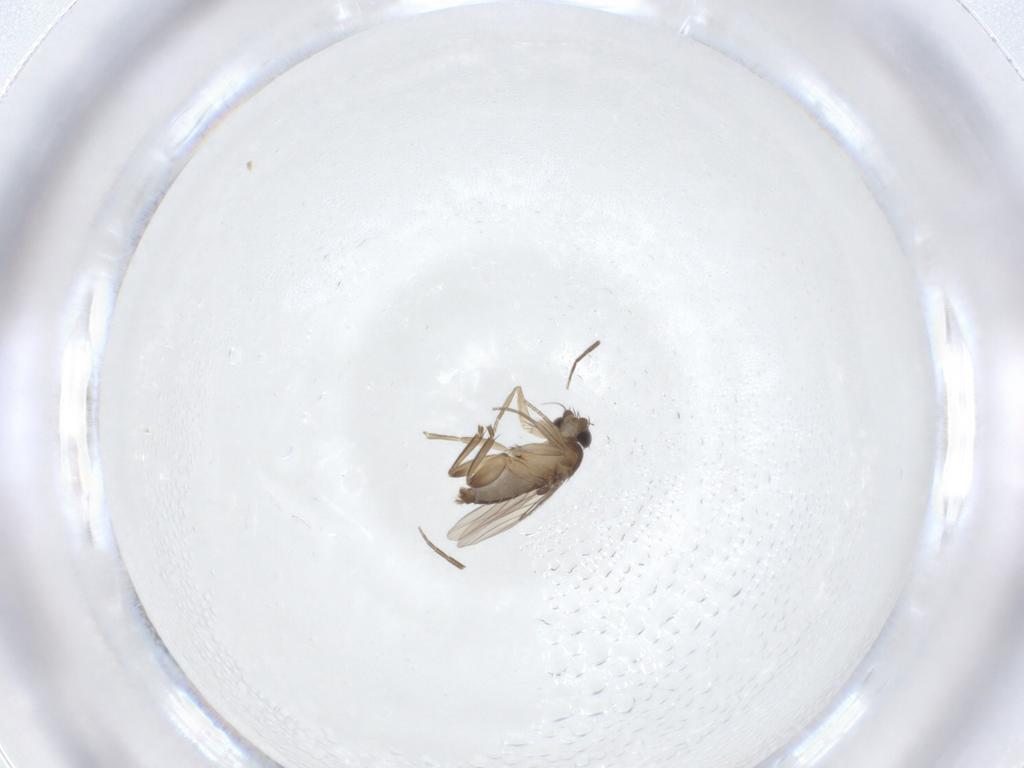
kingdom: Animalia
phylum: Arthropoda
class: Insecta
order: Diptera
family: Phoridae
